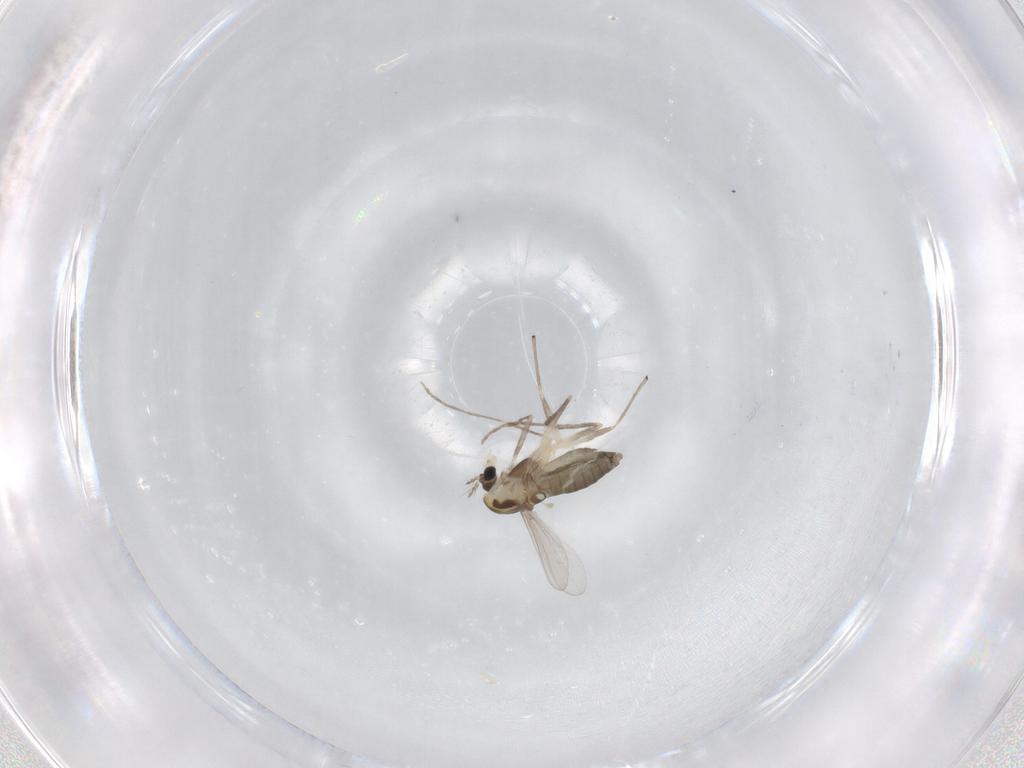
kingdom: Animalia
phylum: Arthropoda
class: Insecta
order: Diptera
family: Chironomidae
